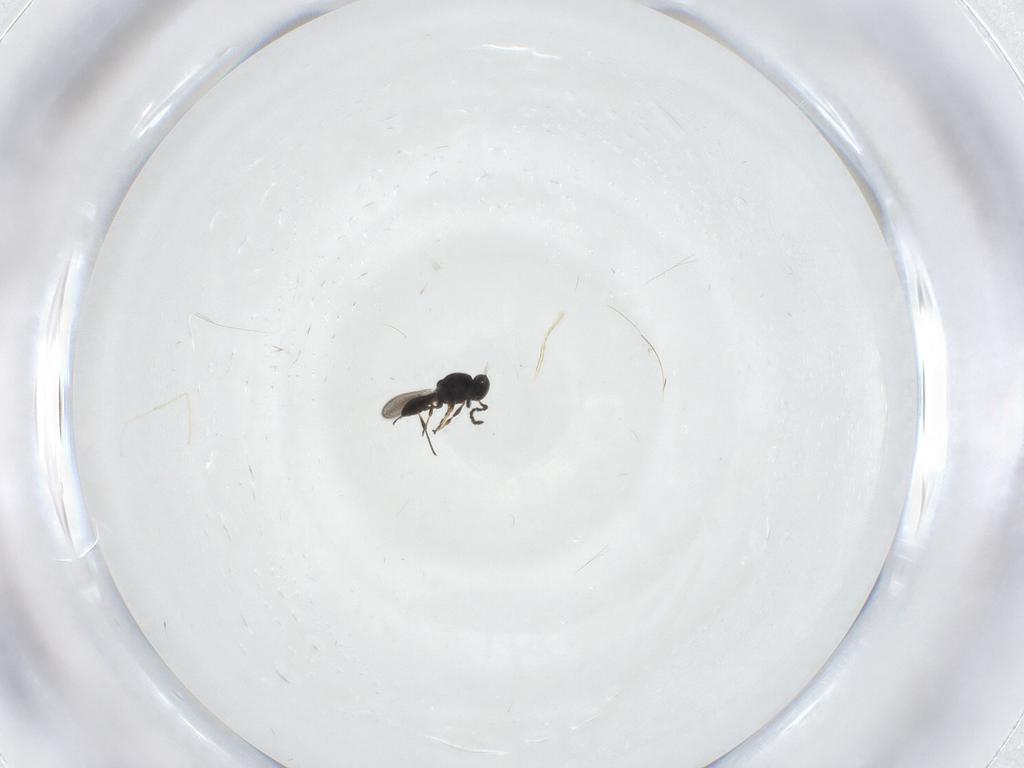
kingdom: Animalia
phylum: Arthropoda
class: Insecta
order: Hymenoptera
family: Platygastridae
